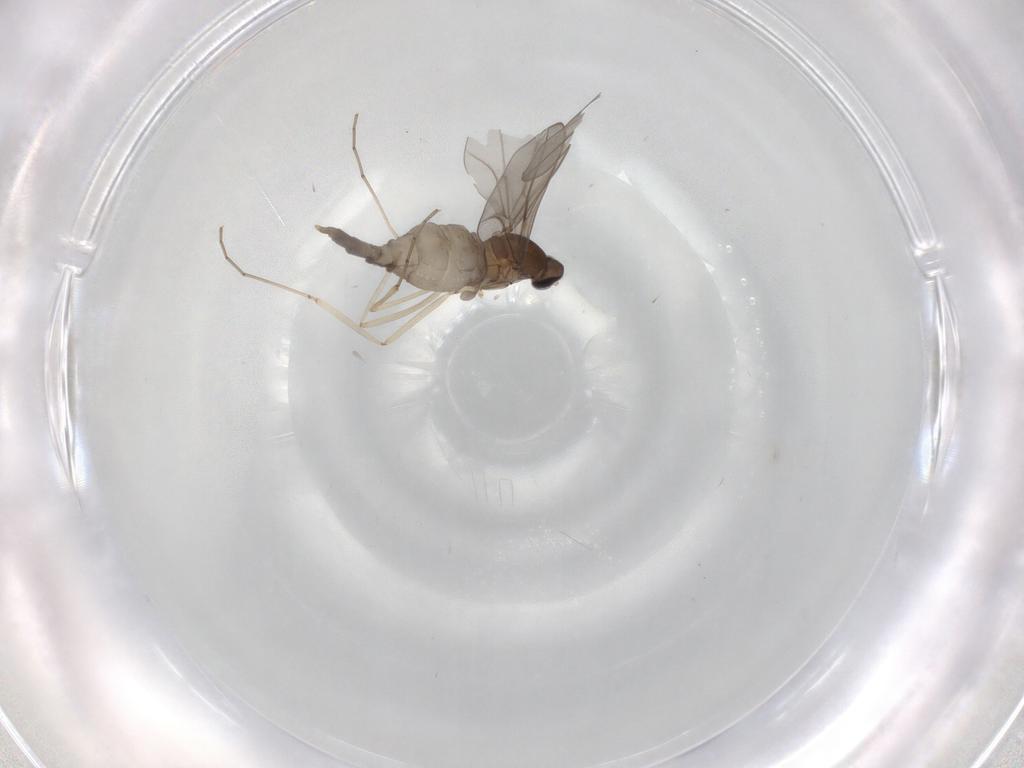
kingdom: Animalia
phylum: Arthropoda
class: Insecta
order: Diptera
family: Cecidomyiidae
